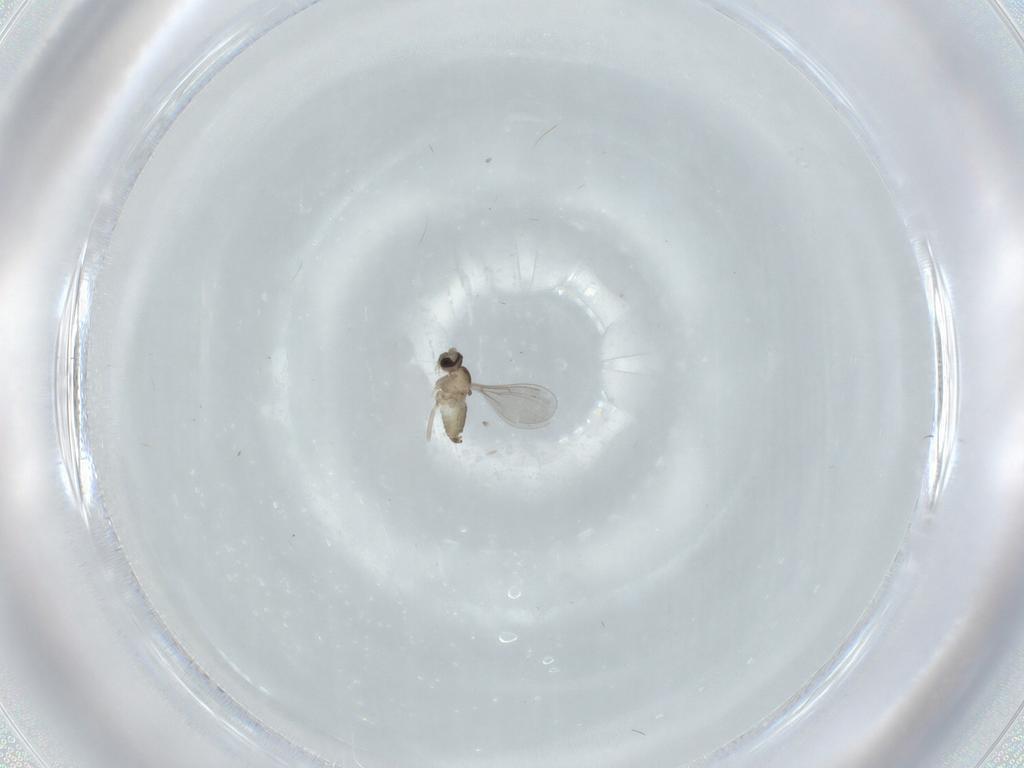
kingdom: Animalia
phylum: Arthropoda
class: Insecta
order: Diptera
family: Cecidomyiidae
